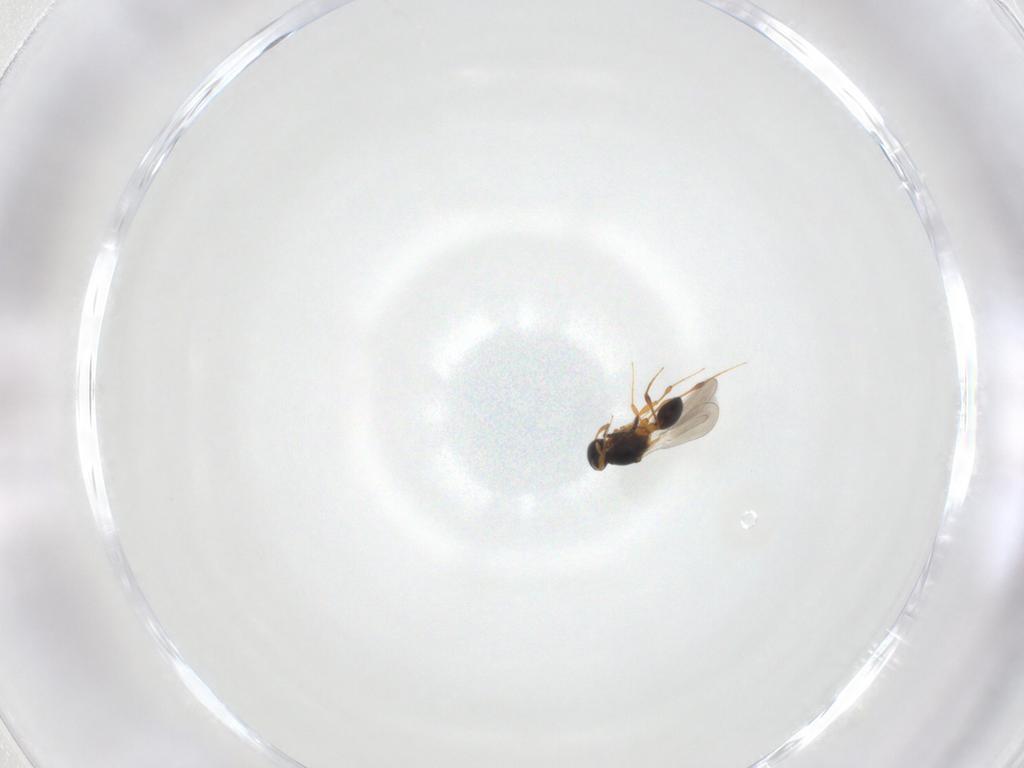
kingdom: Animalia
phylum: Arthropoda
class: Insecta
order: Hymenoptera
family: Platygastridae
